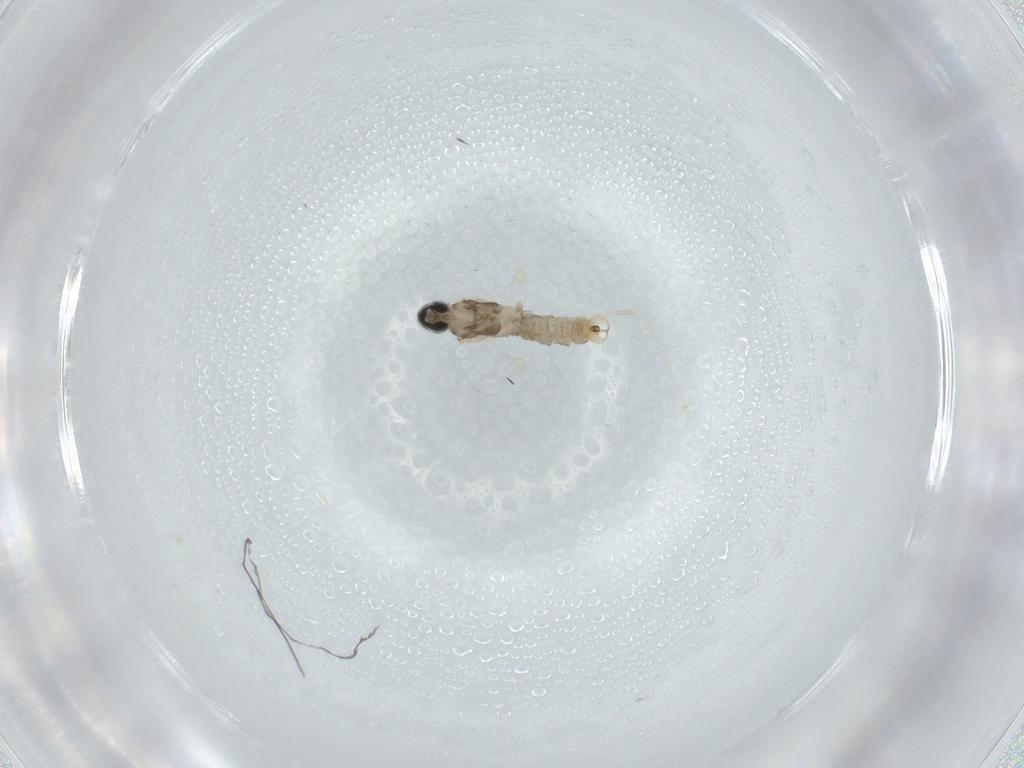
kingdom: Animalia
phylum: Arthropoda
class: Insecta
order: Diptera
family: Cecidomyiidae
